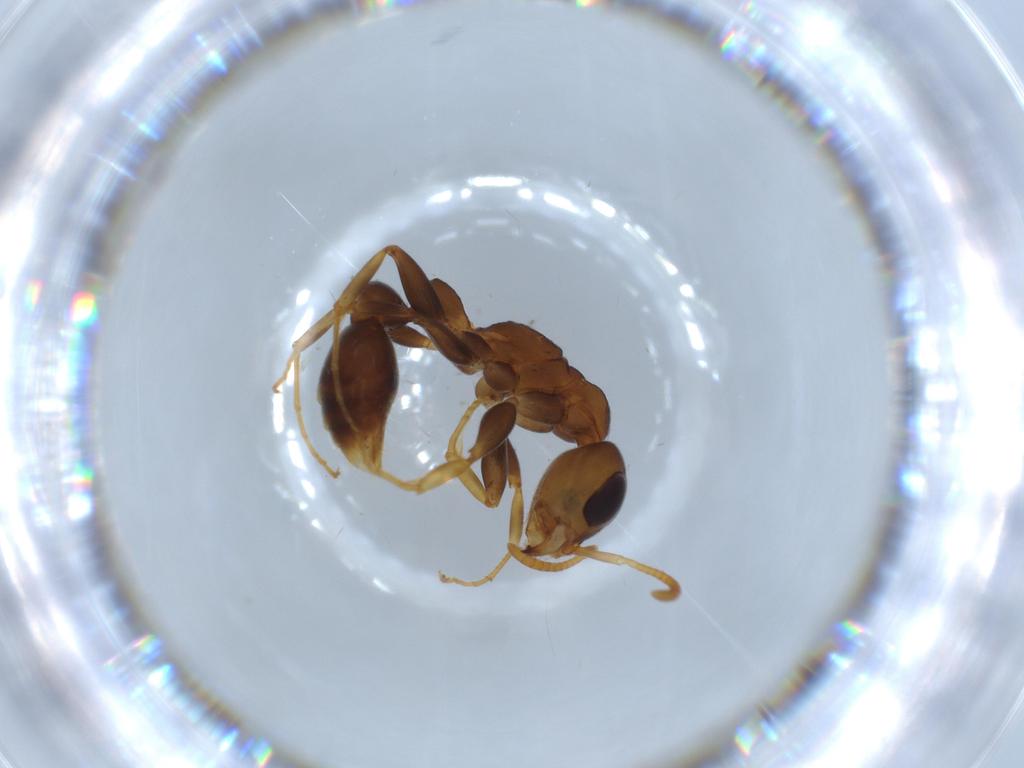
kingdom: Animalia
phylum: Arthropoda
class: Insecta
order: Hymenoptera
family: Formicidae
